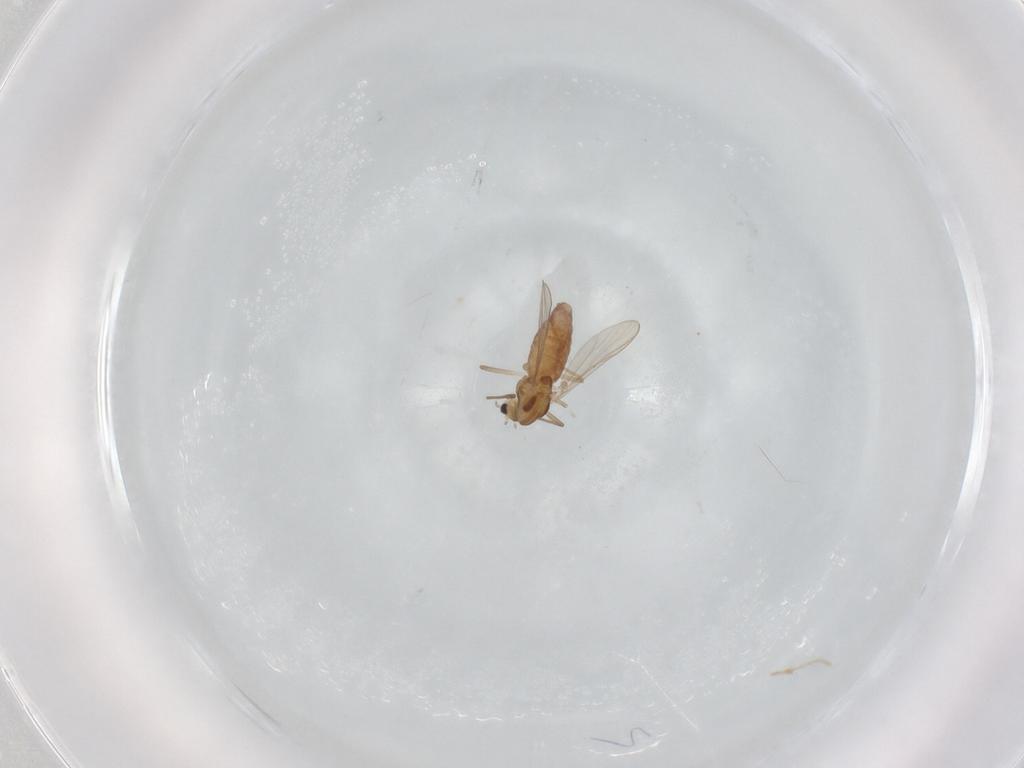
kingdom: Animalia
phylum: Arthropoda
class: Insecta
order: Diptera
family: Chironomidae
